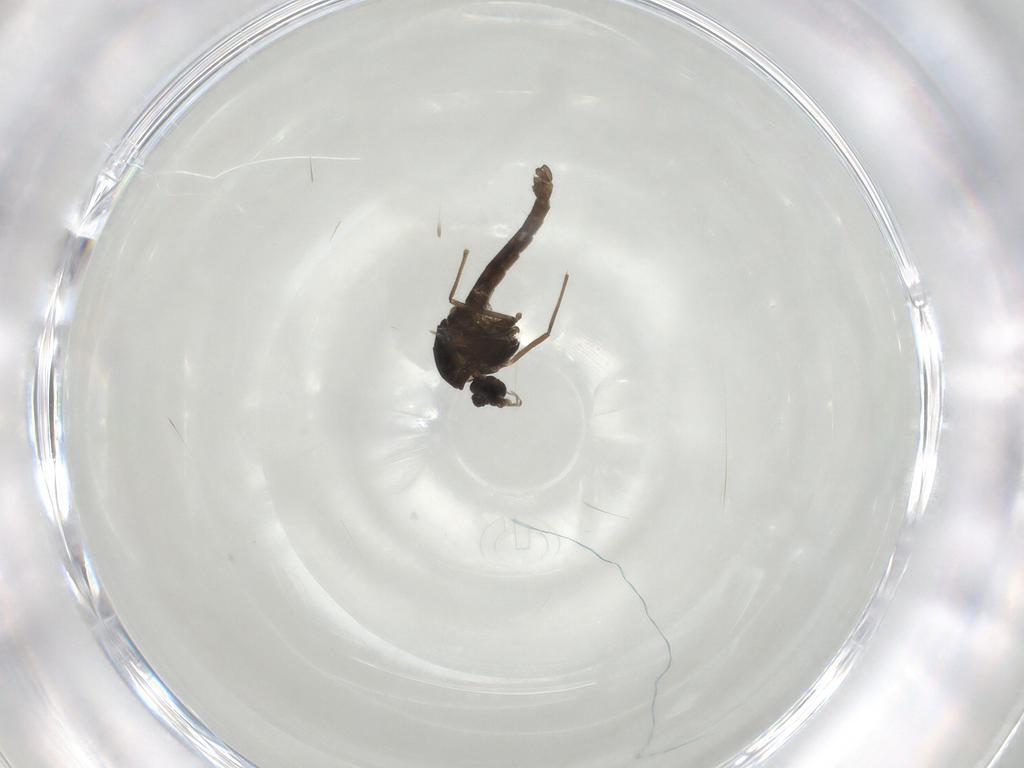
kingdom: Animalia
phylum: Arthropoda
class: Insecta
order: Diptera
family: Chironomidae
